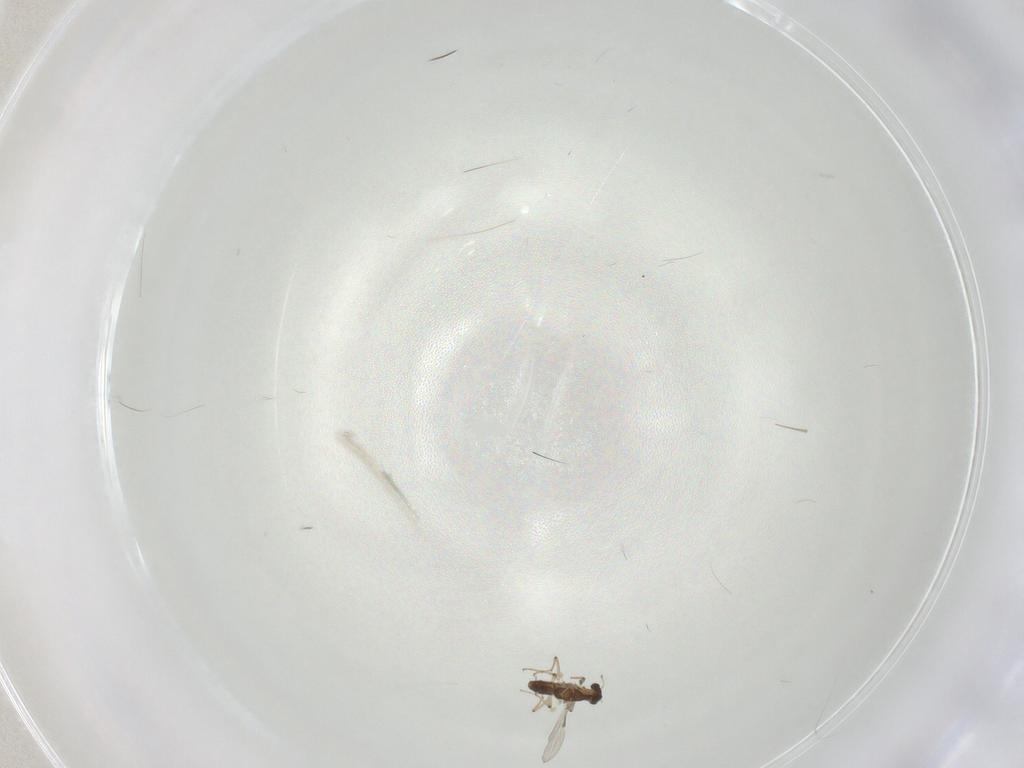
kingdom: Animalia
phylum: Arthropoda
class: Insecta
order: Diptera
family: Chironomidae
